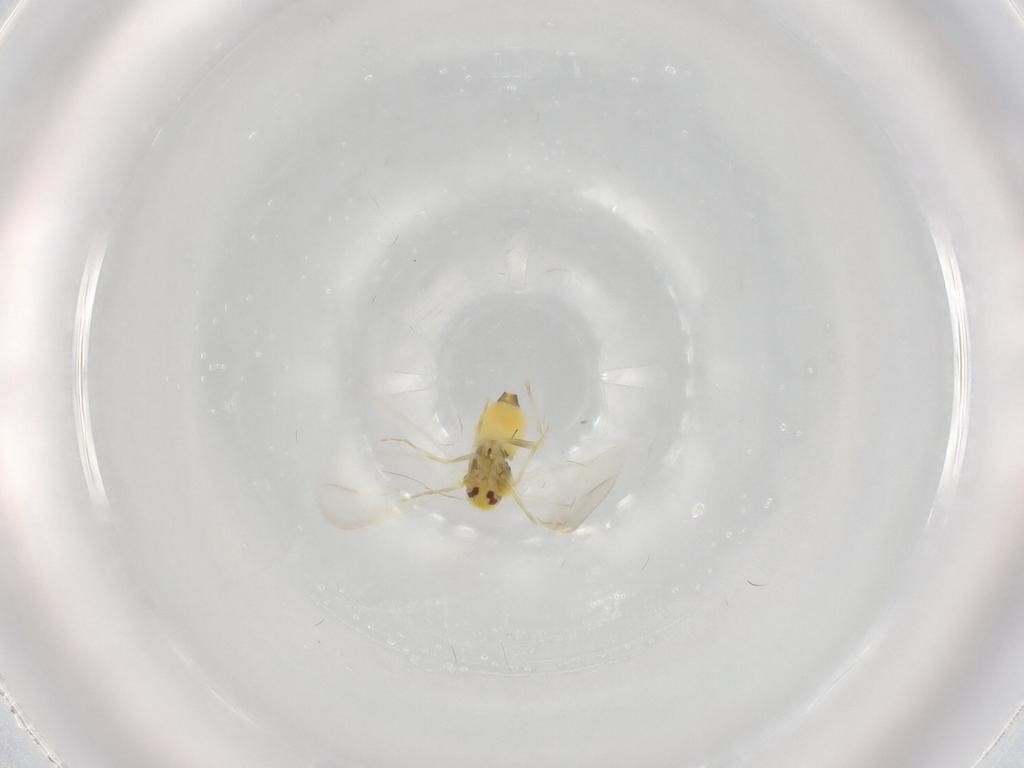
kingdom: Animalia
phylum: Arthropoda
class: Insecta
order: Hemiptera
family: Aleyrodidae
